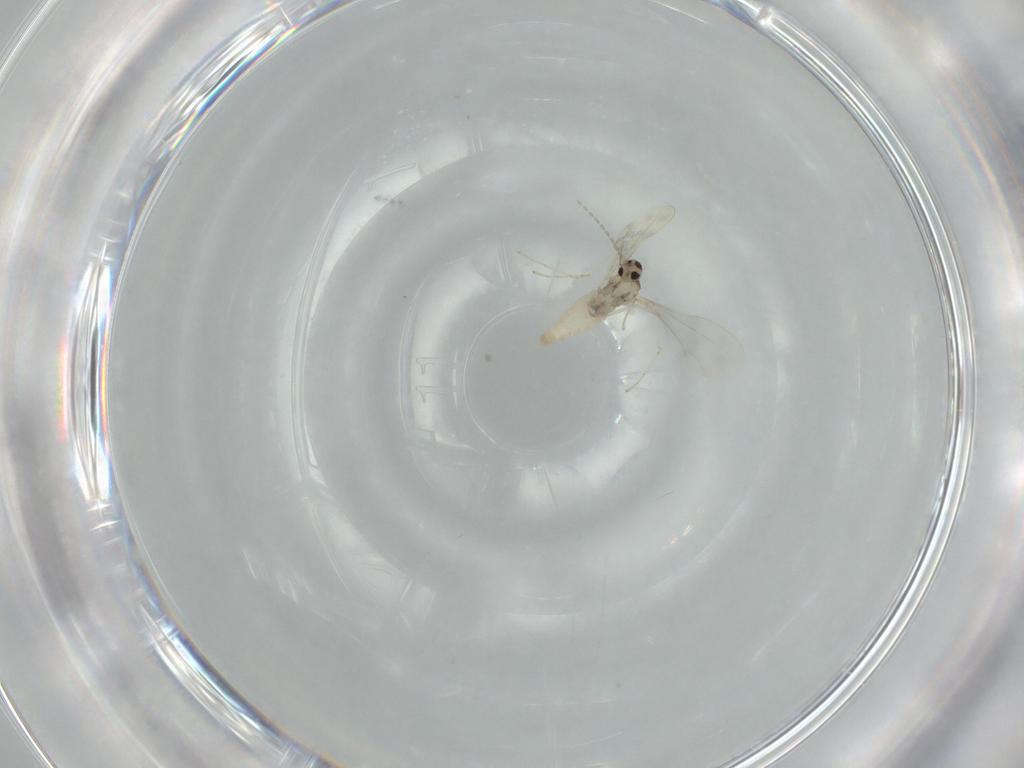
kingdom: Animalia
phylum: Arthropoda
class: Insecta
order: Diptera
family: Cecidomyiidae
